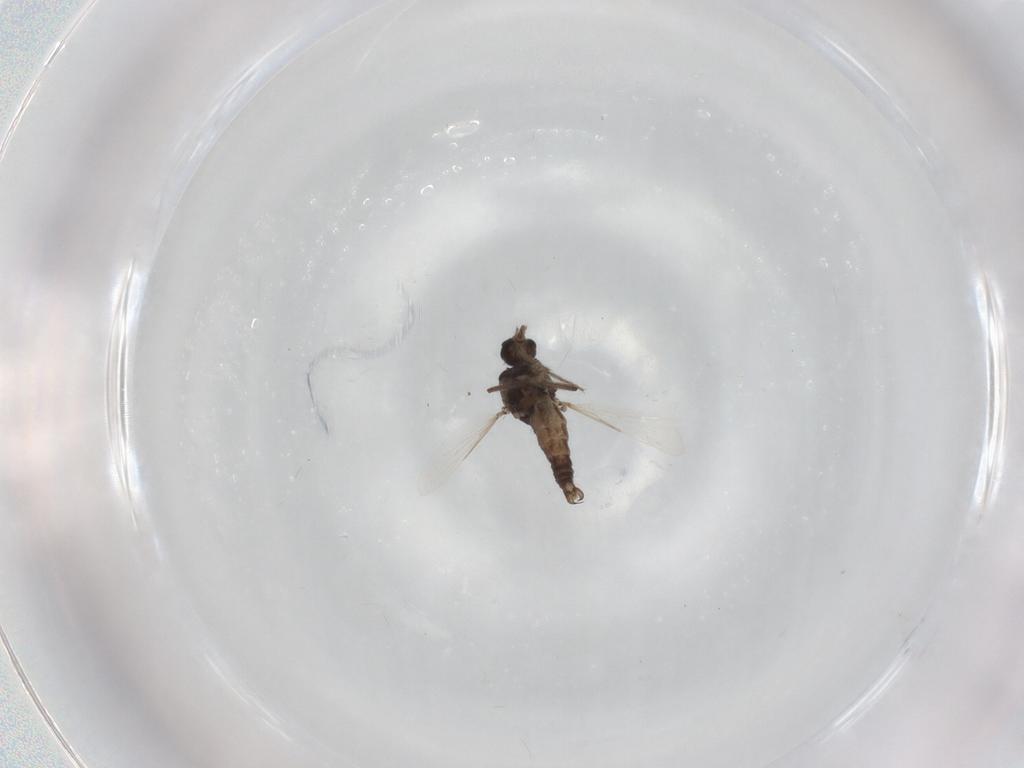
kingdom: Animalia
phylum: Arthropoda
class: Insecta
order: Diptera
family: Ceratopogonidae
